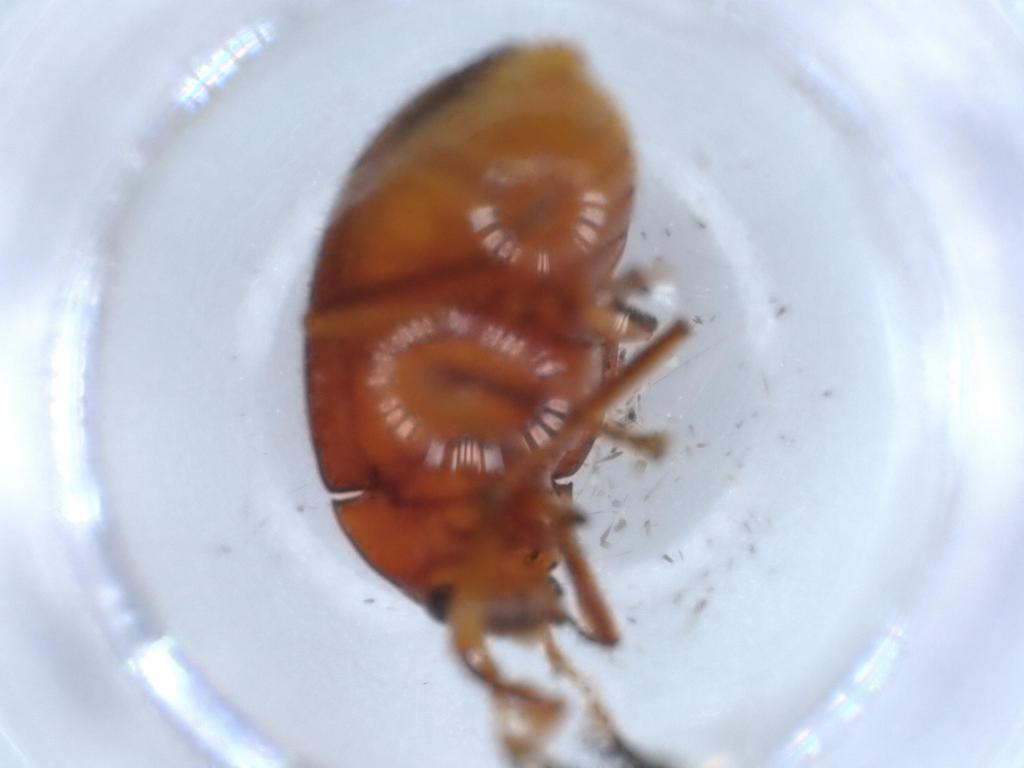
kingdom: Animalia
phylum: Arthropoda
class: Insecta
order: Coleoptera
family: Ptilodactylidae
